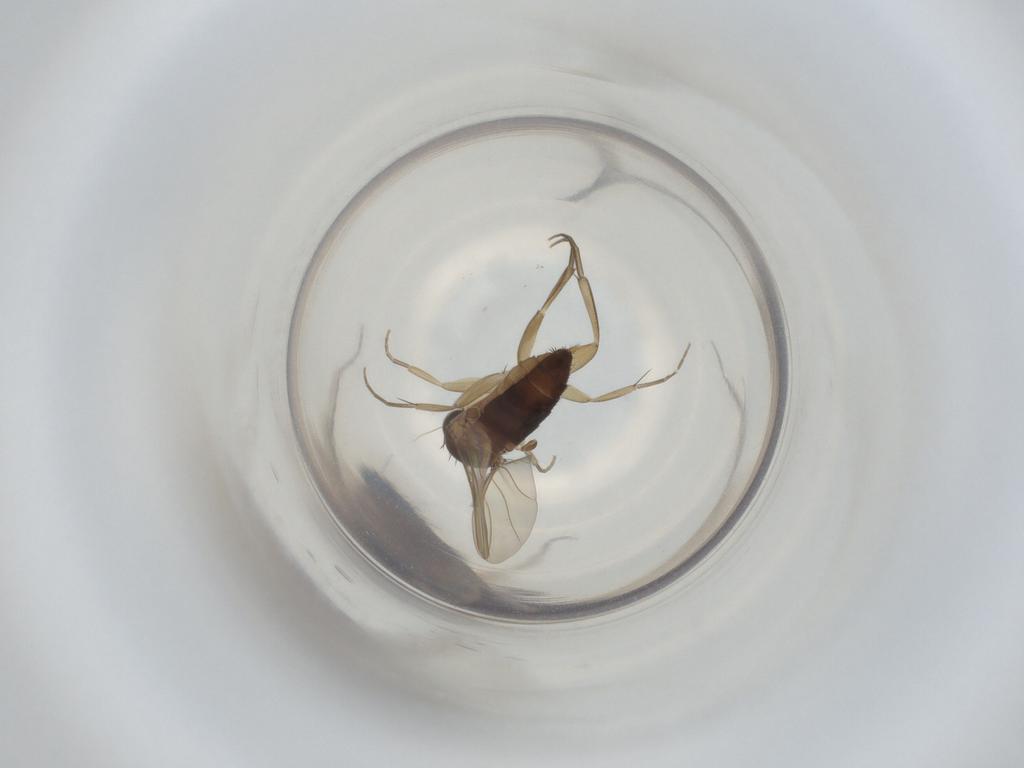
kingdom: Animalia
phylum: Arthropoda
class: Insecta
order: Diptera
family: Phoridae
